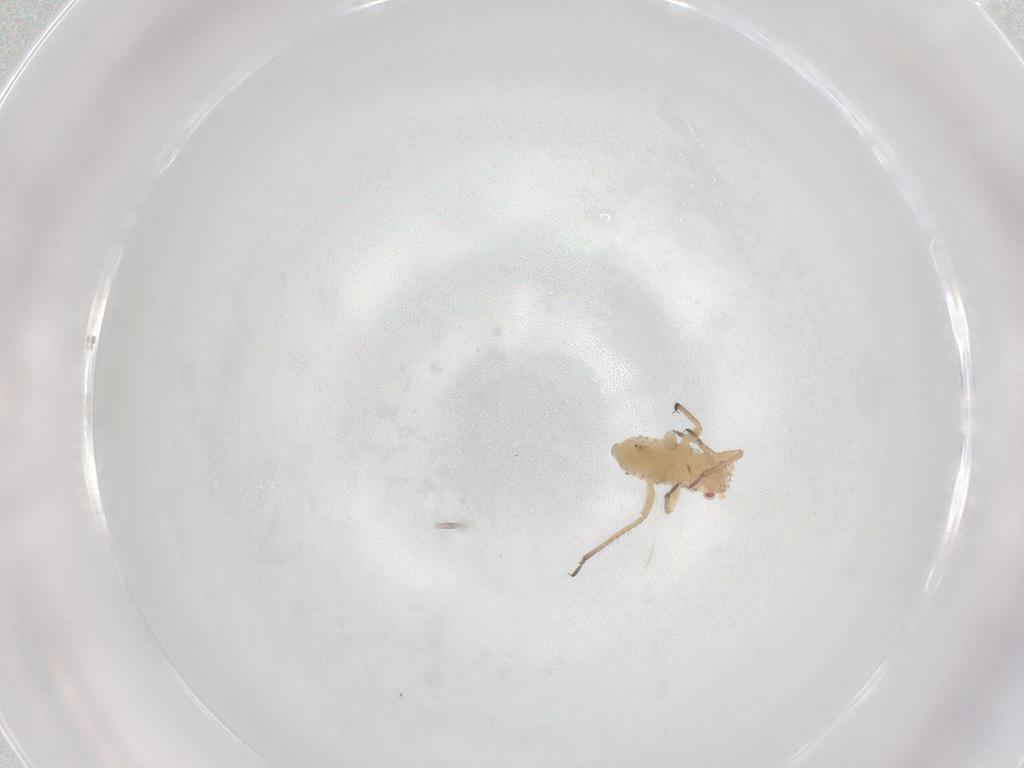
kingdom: Animalia
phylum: Arthropoda
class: Insecta
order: Hemiptera
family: Aphididae
